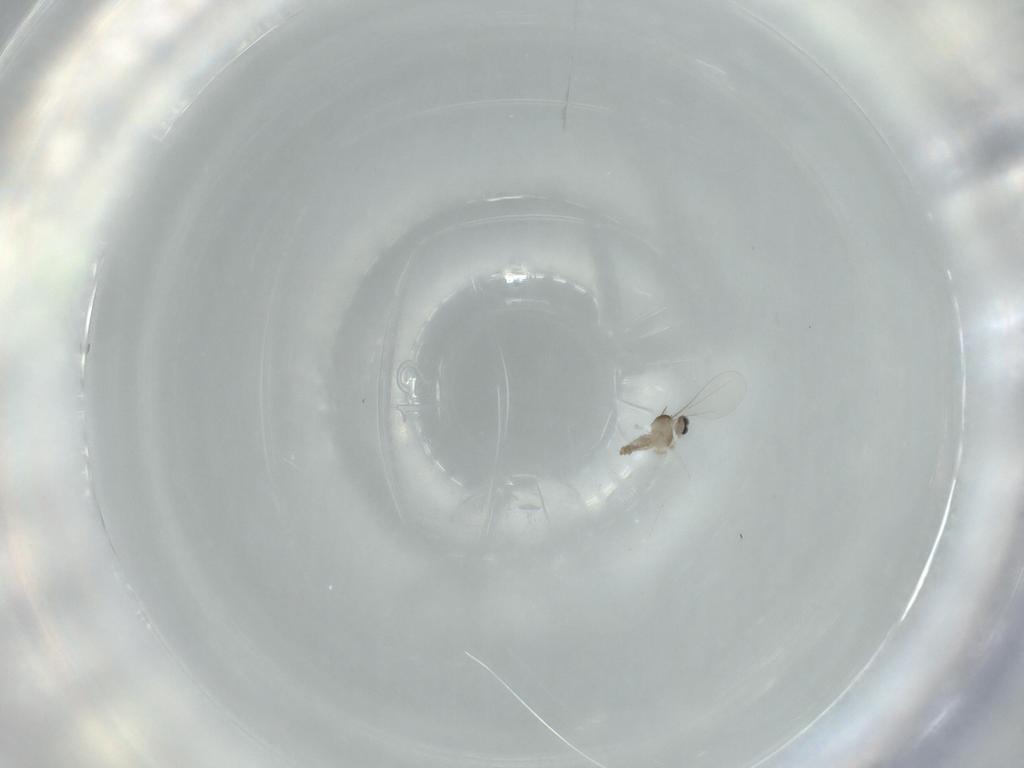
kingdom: Animalia
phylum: Arthropoda
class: Insecta
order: Diptera
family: Cecidomyiidae
